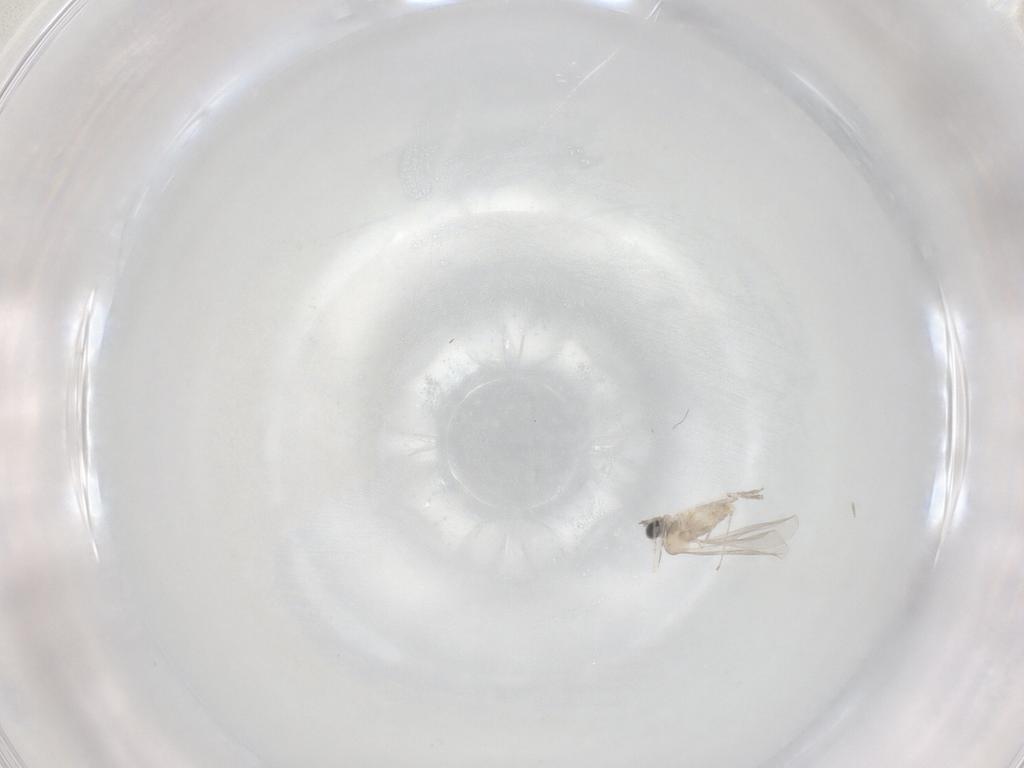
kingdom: Animalia
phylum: Arthropoda
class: Insecta
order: Diptera
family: Cecidomyiidae
